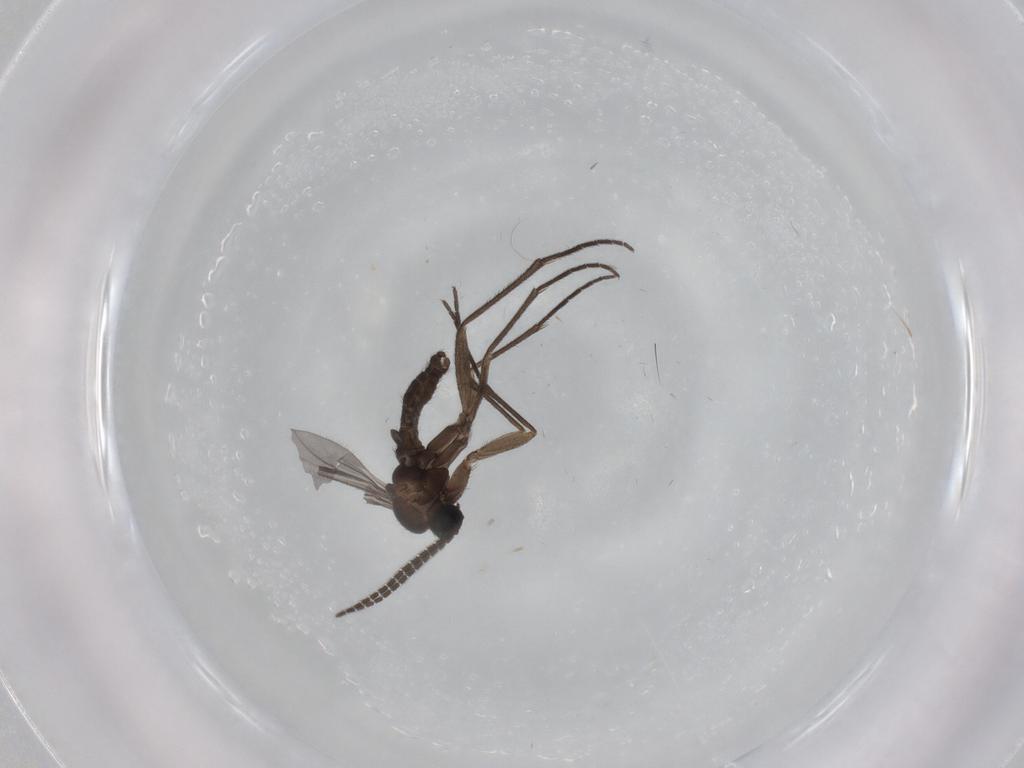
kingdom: Animalia
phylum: Arthropoda
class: Insecta
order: Diptera
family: Sciaridae
